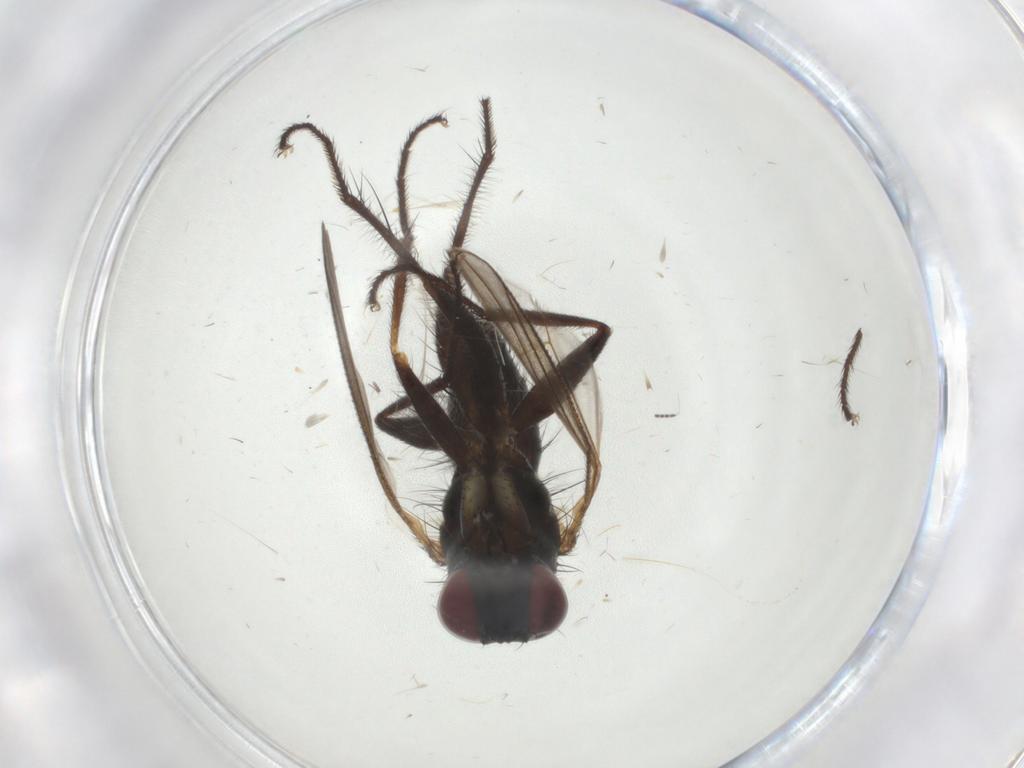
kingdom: Animalia
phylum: Arthropoda
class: Insecta
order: Diptera
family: Muscidae
